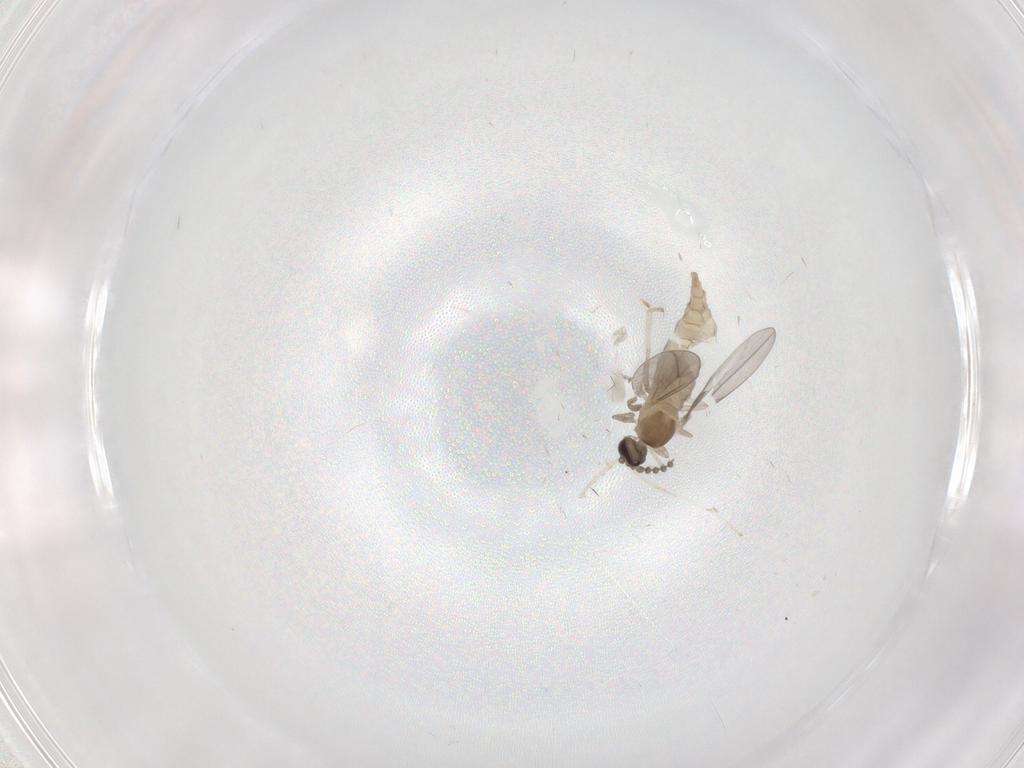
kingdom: Animalia
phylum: Arthropoda
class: Insecta
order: Diptera
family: Cecidomyiidae
